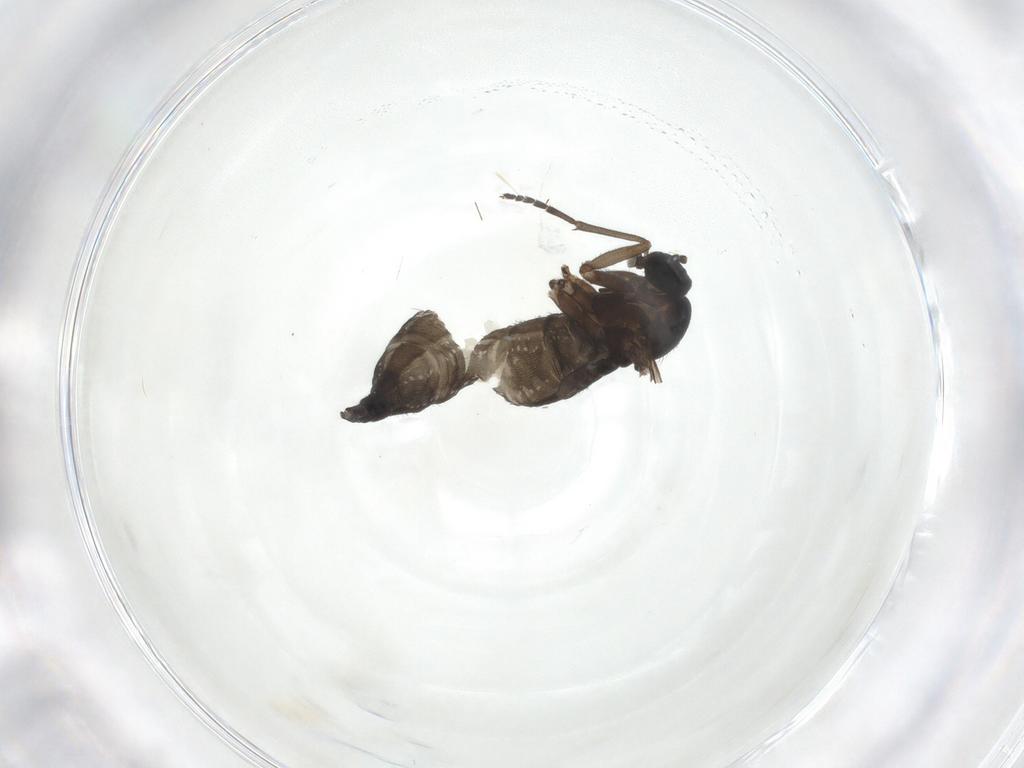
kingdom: Animalia
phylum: Arthropoda
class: Insecta
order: Diptera
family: Sciaridae
